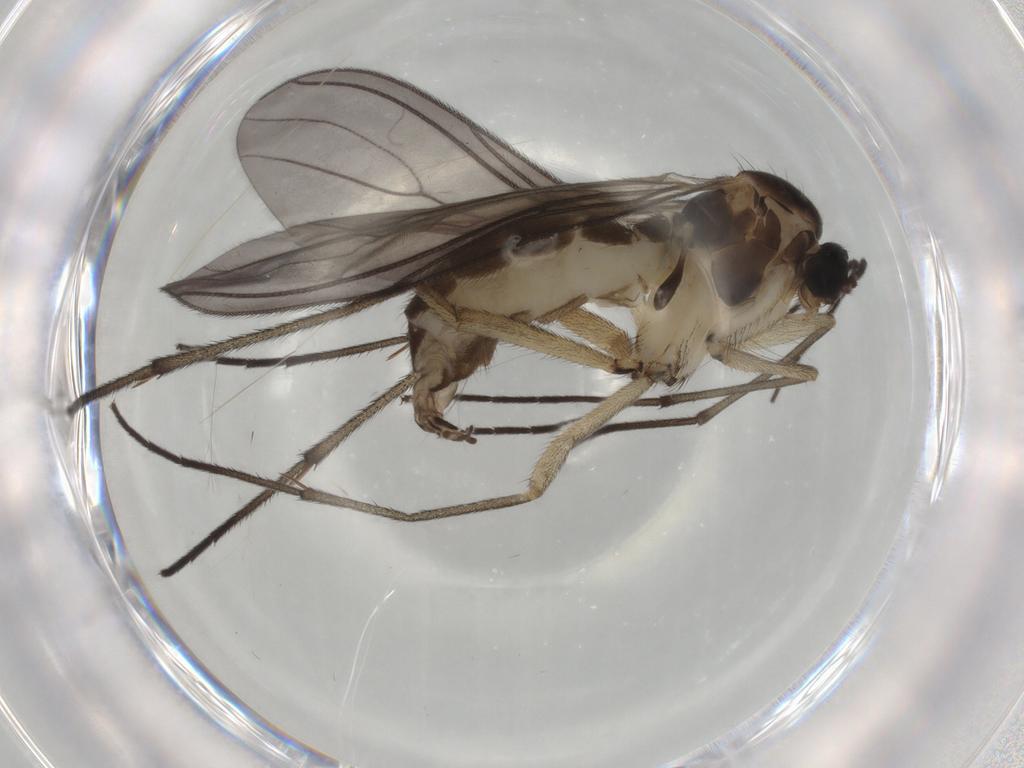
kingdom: Animalia
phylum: Arthropoda
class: Insecta
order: Diptera
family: Sciaridae
